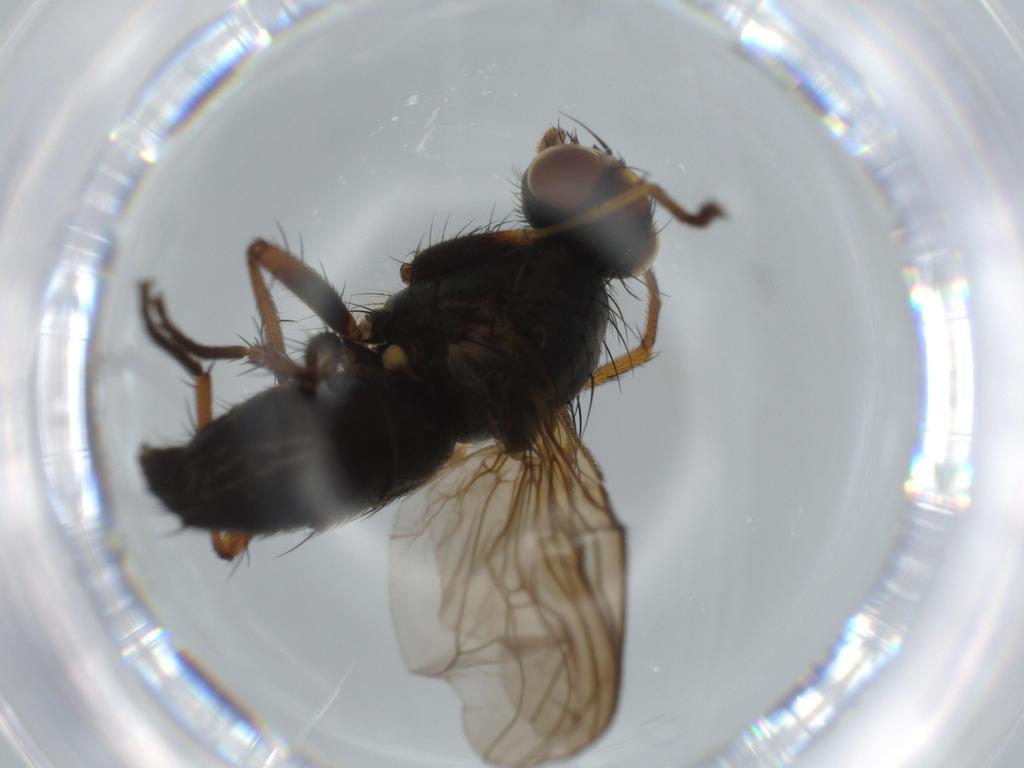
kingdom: Animalia
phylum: Arthropoda
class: Insecta
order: Diptera
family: Scathophagidae
